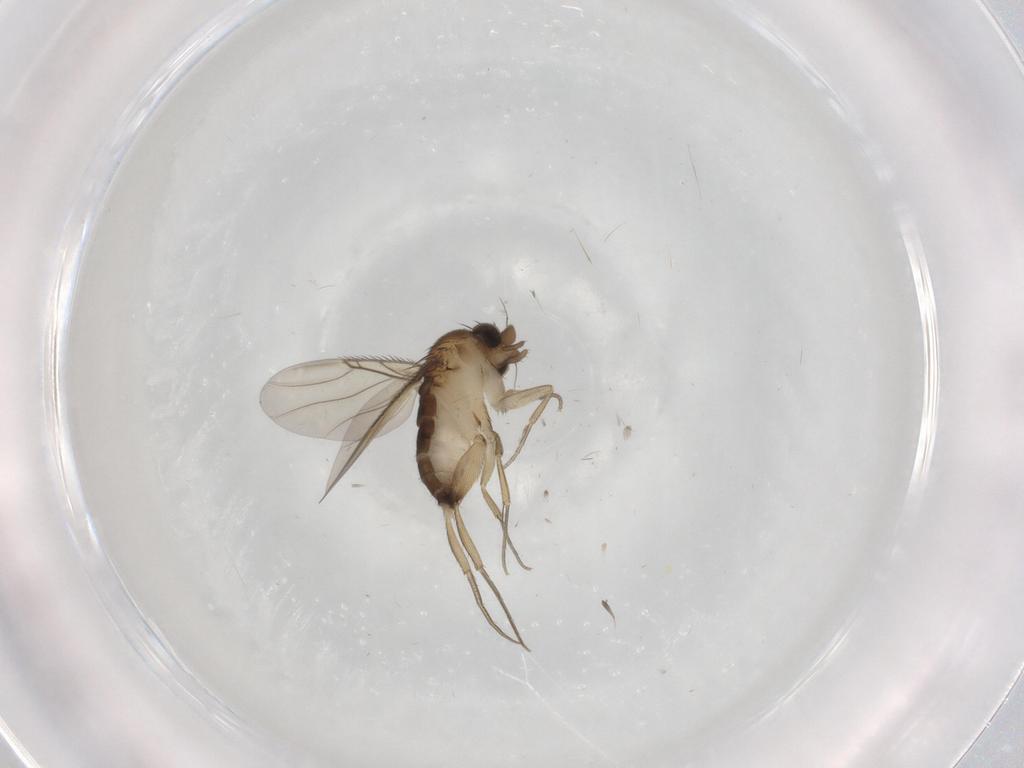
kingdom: Animalia
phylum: Arthropoda
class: Insecta
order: Diptera
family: Phoridae
